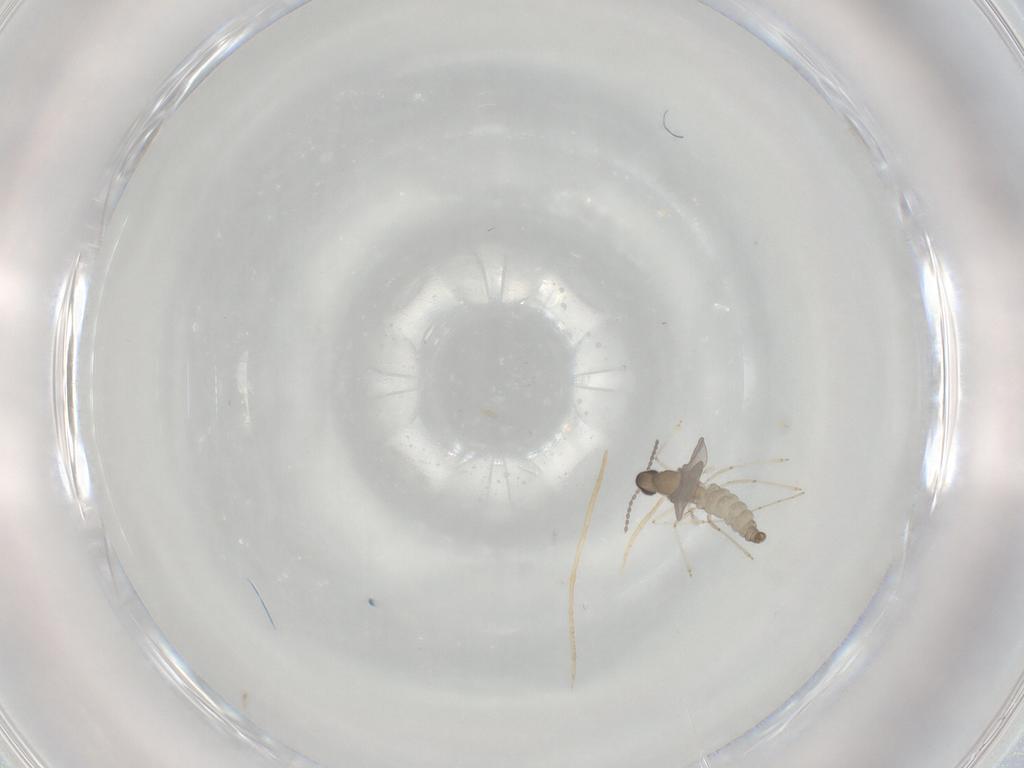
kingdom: Animalia
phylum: Arthropoda
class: Insecta
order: Diptera
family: Cecidomyiidae
